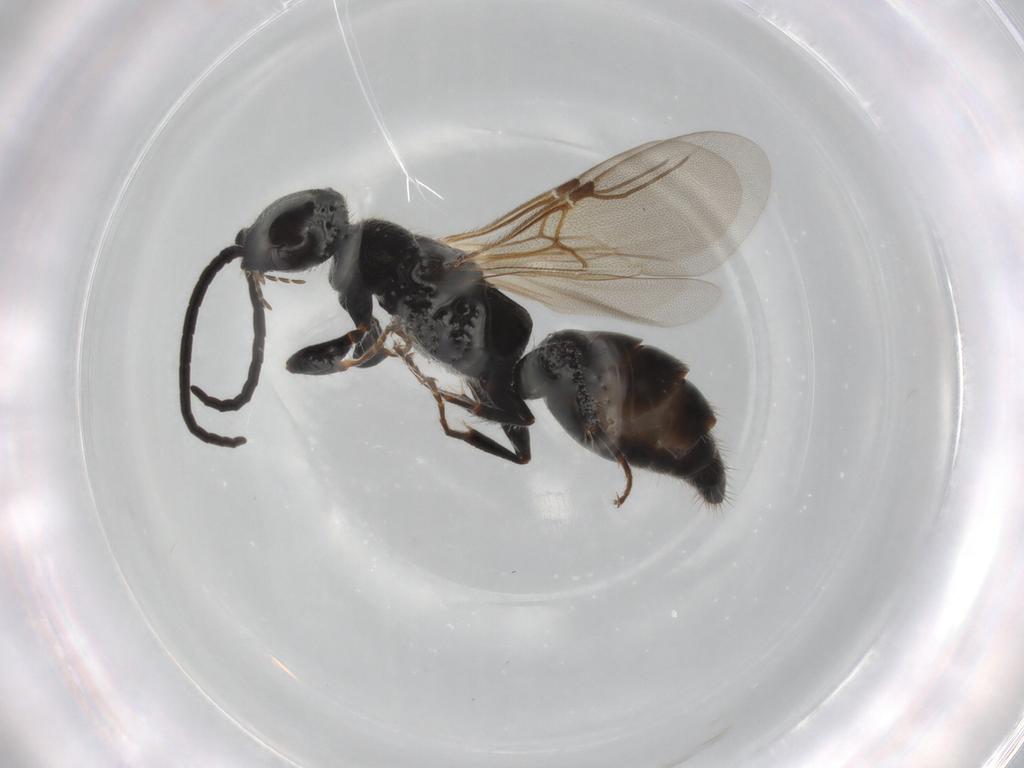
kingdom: Animalia
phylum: Arthropoda
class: Insecta
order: Hymenoptera
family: Bethylidae
